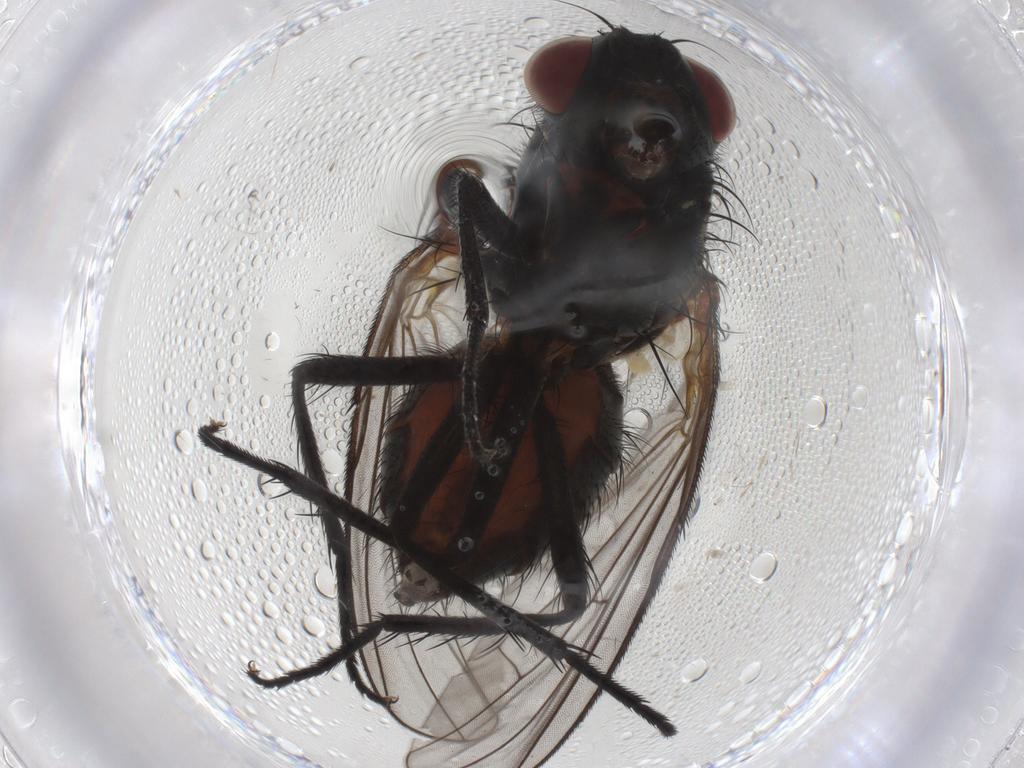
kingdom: Animalia
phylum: Arthropoda
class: Insecta
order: Diptera
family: Anthomyiidae
